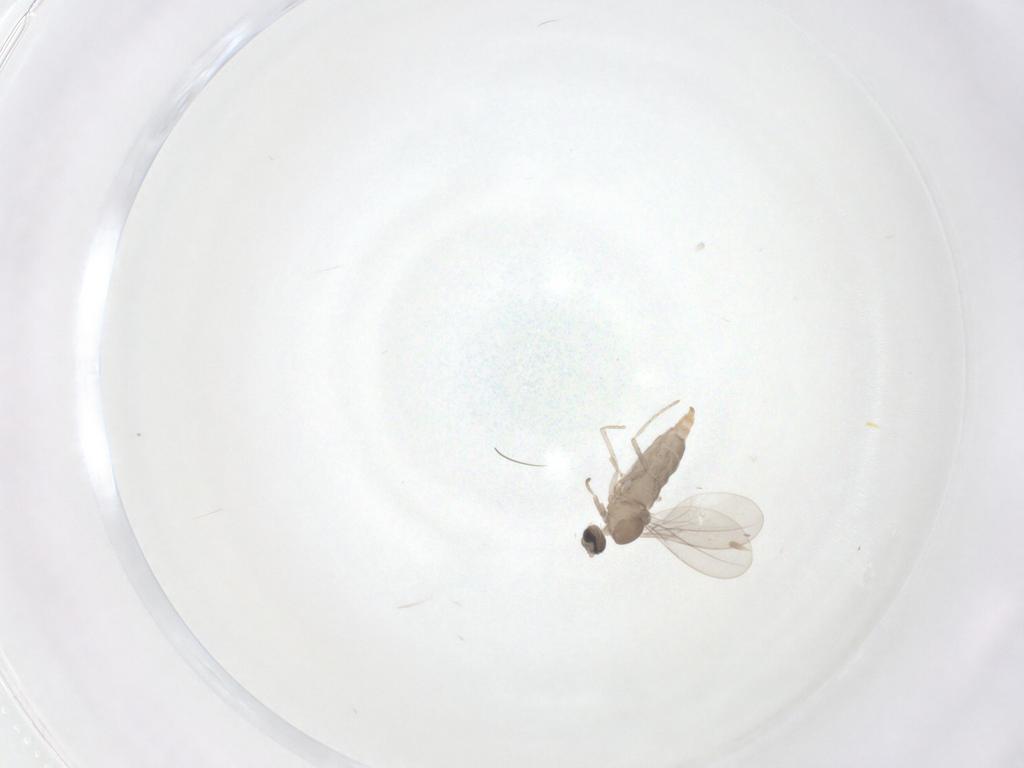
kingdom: Animalia
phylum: Arthropoda
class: Insecta
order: Diptera
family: Cecidomyiidae
